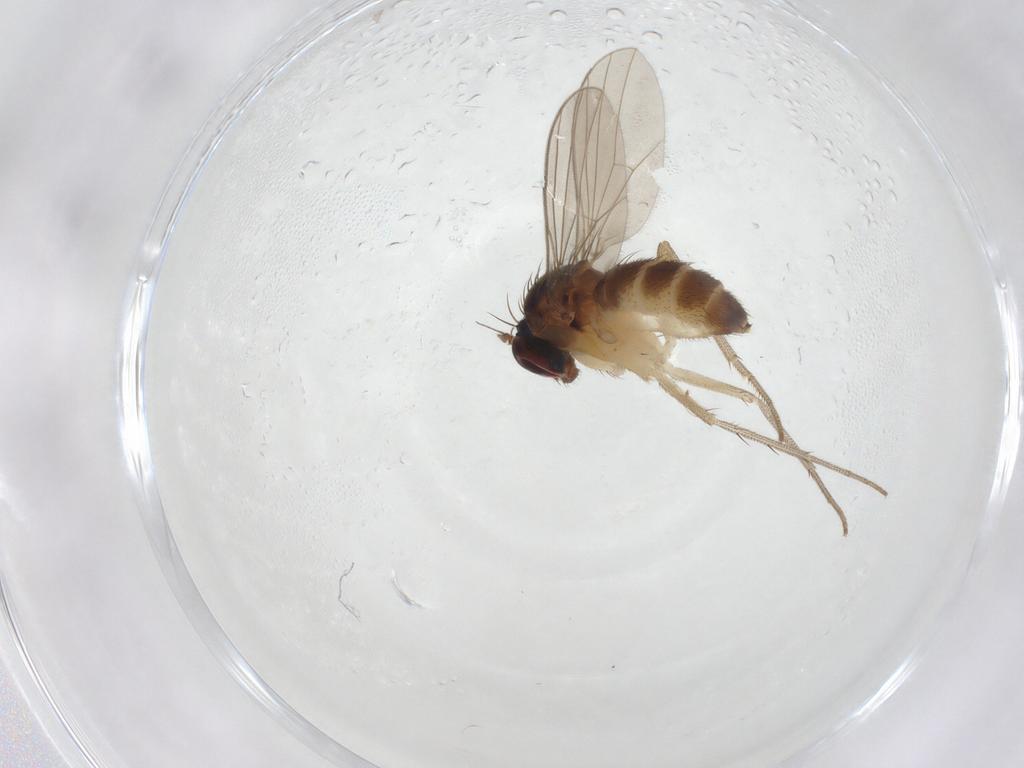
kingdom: Animalia
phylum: Arthropoda
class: Insecta
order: Diptera
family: Dolichopodidae
